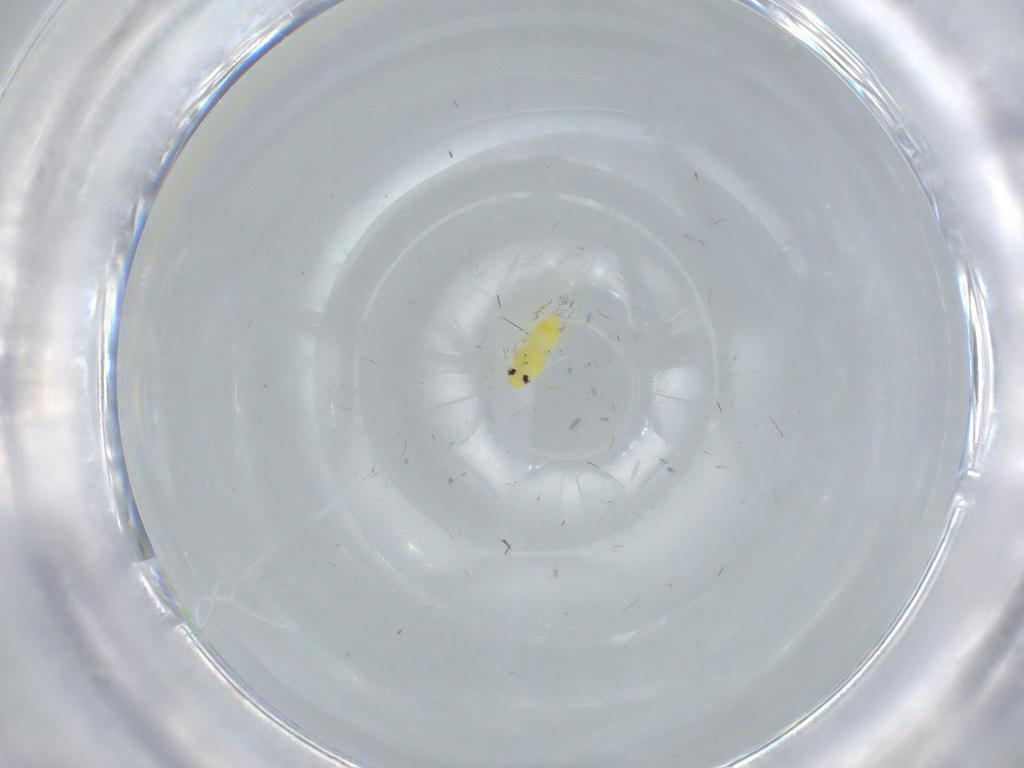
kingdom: Animalia
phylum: Arthropoda
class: Insecta
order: Hemiptera
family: Aleyrodidae
